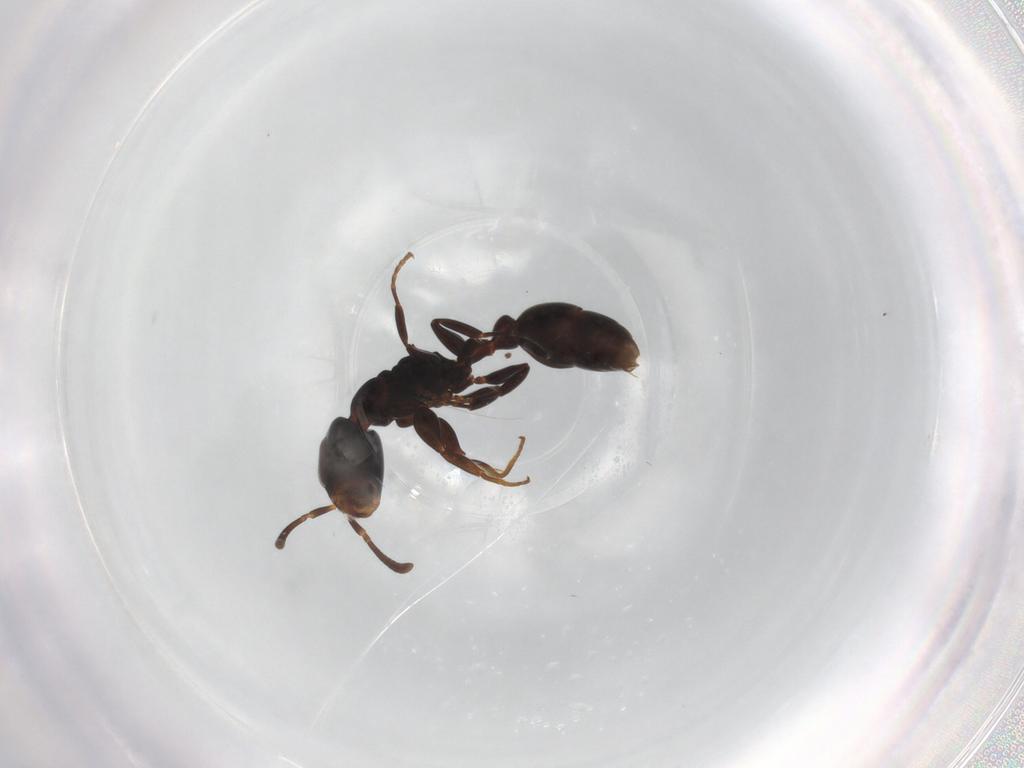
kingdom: Animalia
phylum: Arthropoda
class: Insecta
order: Hymenoptera
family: Formicidae
